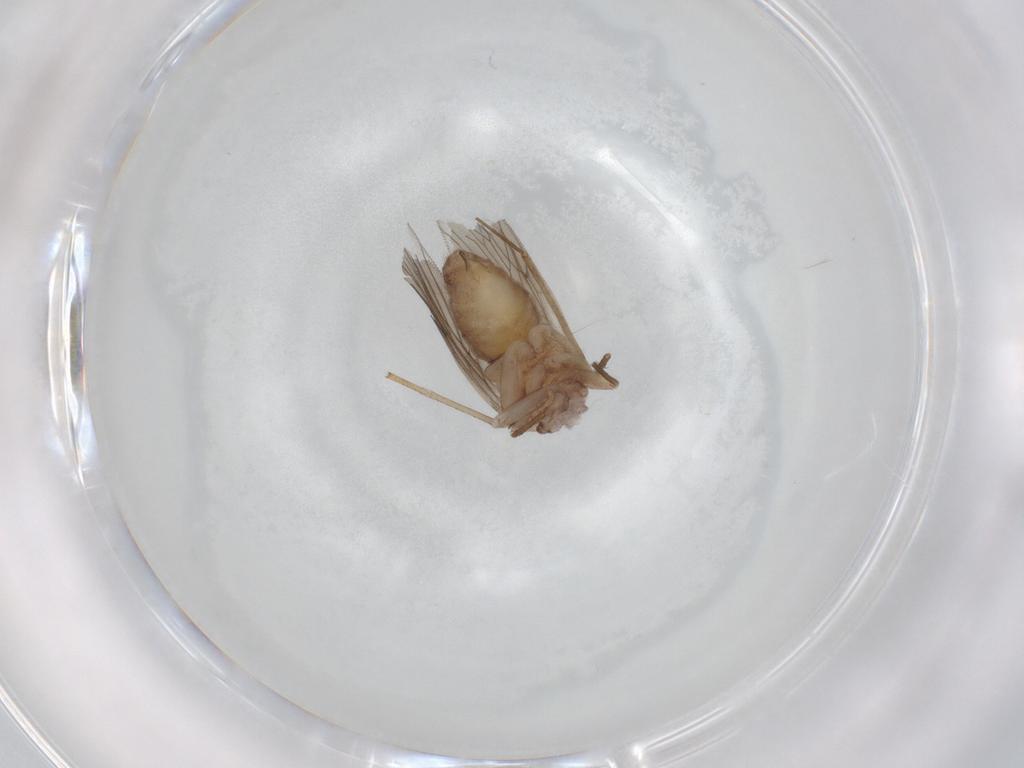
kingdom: Animalia
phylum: Arthropoda
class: Insecta
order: Psocodea
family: Lepidopsocidae
